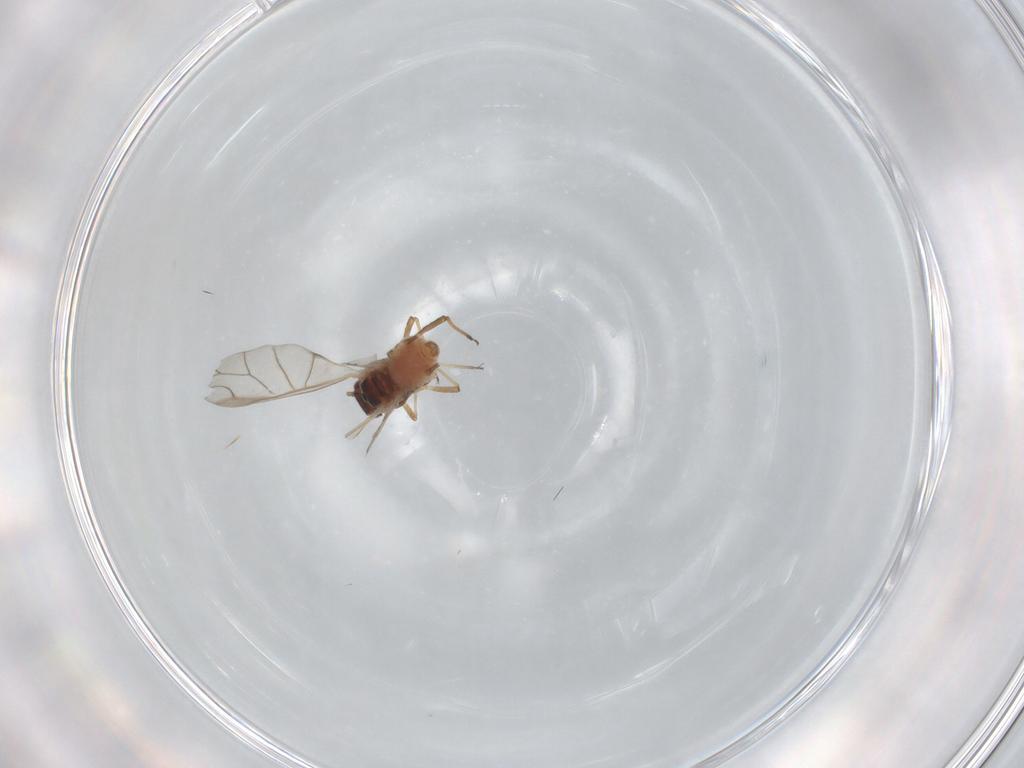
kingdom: Animalia
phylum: Arthropoda
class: Insecta
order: Hemiptera
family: Aphididae
